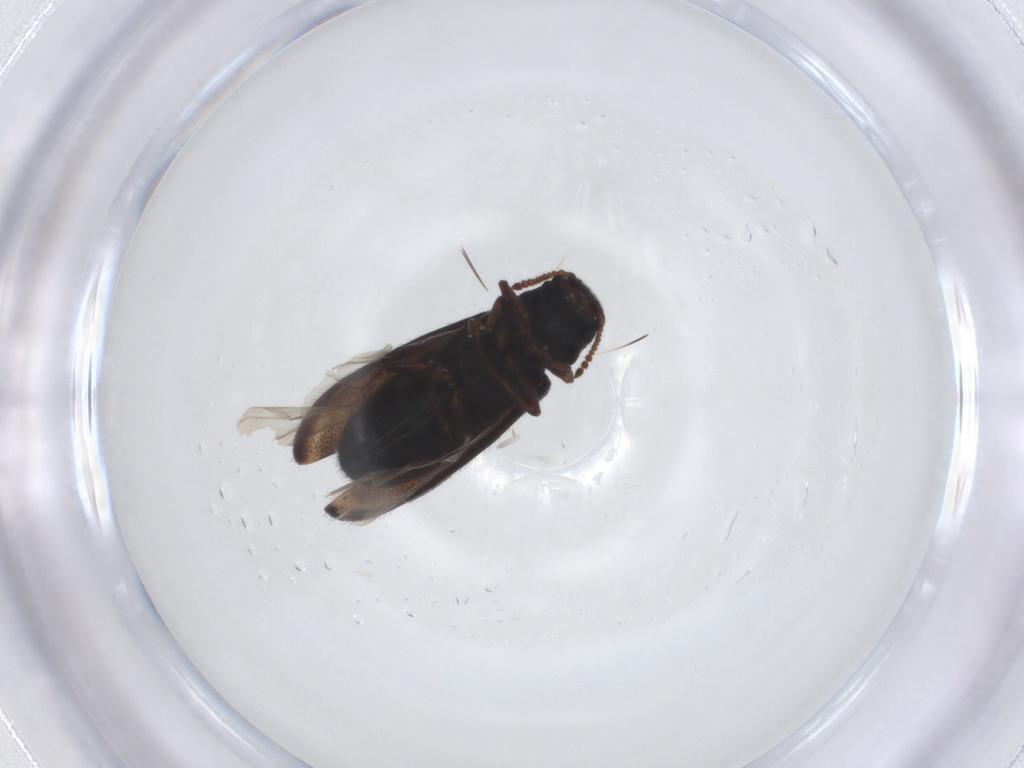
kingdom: Animalia
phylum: Arthropoda
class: Insecta
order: Coleoptera
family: Melyridae
